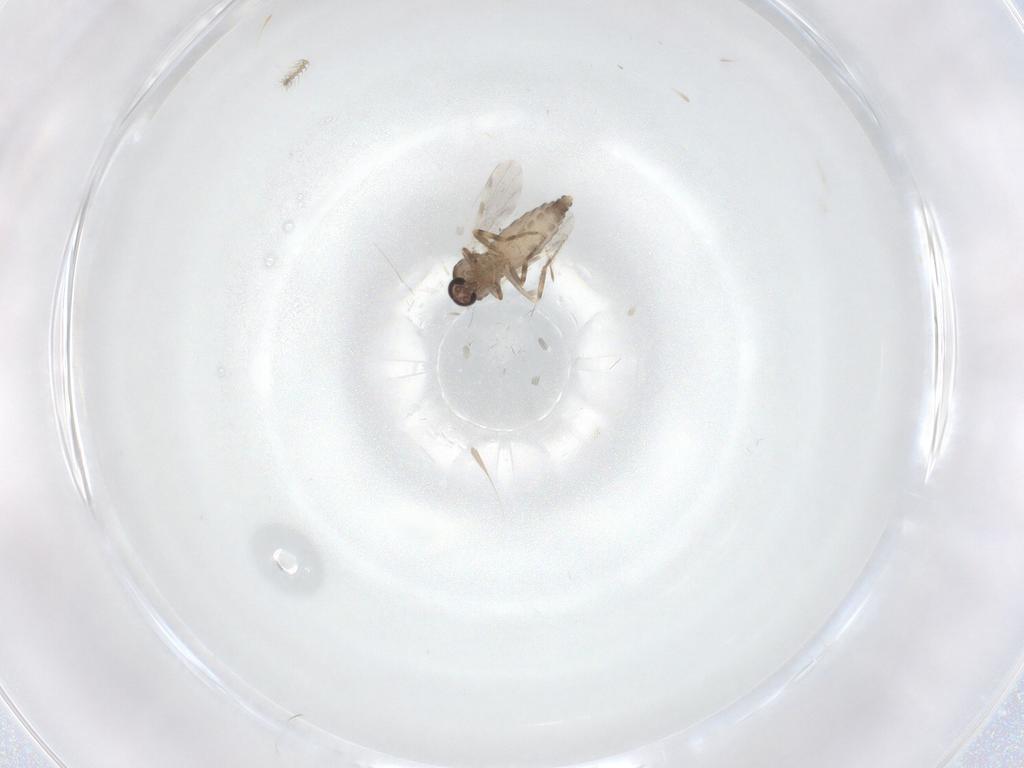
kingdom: Animalia
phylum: Arthropoda
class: Insecta
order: Diptera
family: Ceratopogonidae
